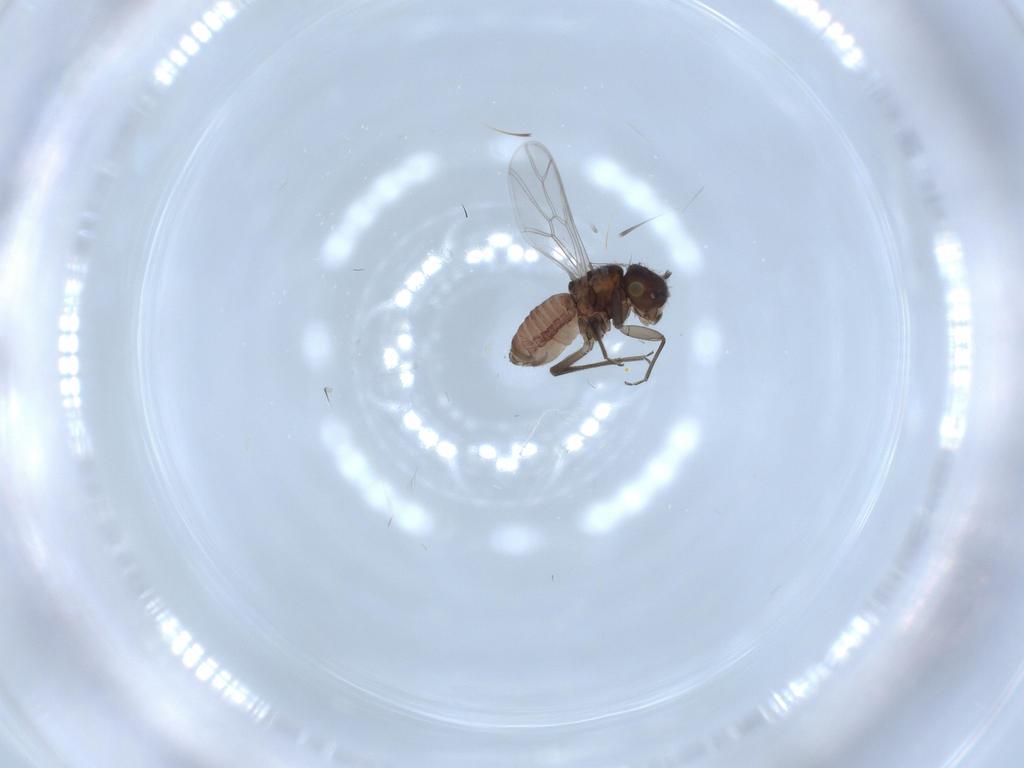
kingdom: Animalia
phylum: Arthropoda
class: Insecta
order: Psocodea
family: Ectopsocidae
